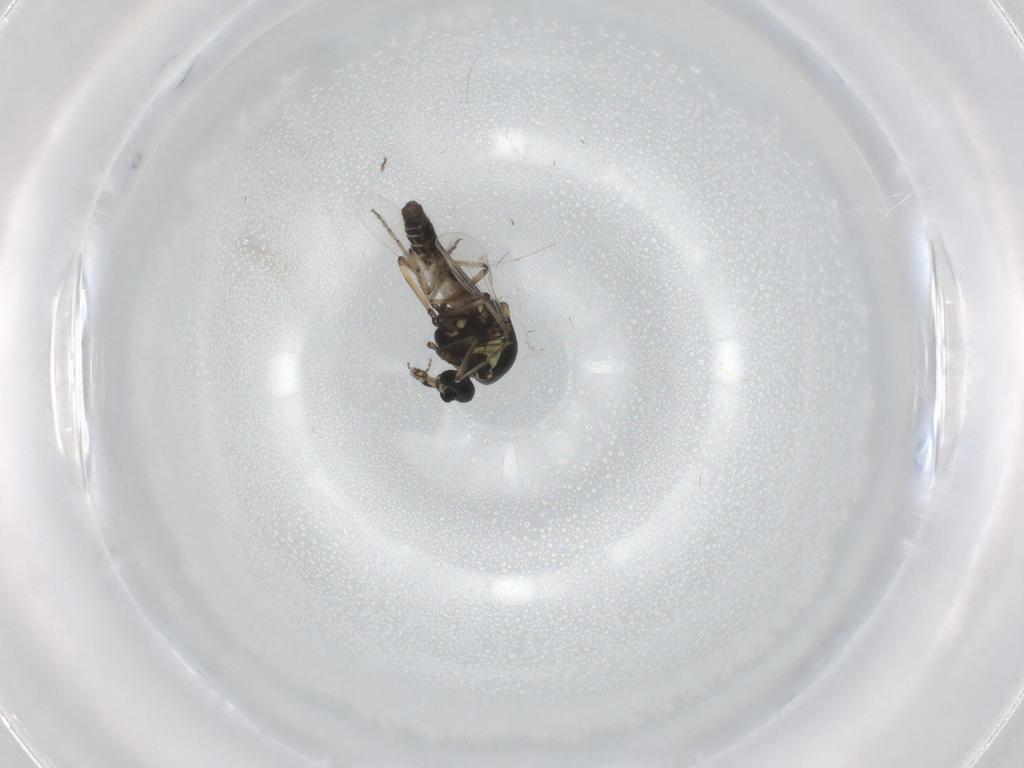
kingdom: Animalia
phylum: Arthropoda
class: Insecta
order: Diptera
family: Ceratopogonidae
